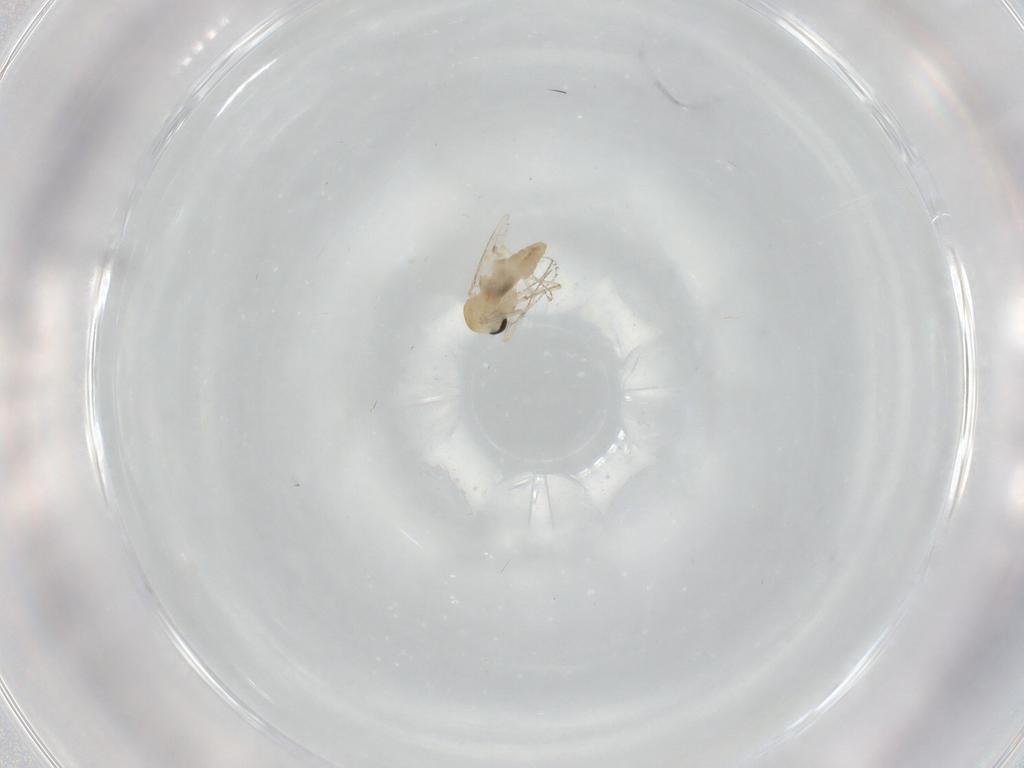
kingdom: Animalia
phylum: Arthropoda
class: Insecta
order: Diptera
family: Ceratopogonidae
